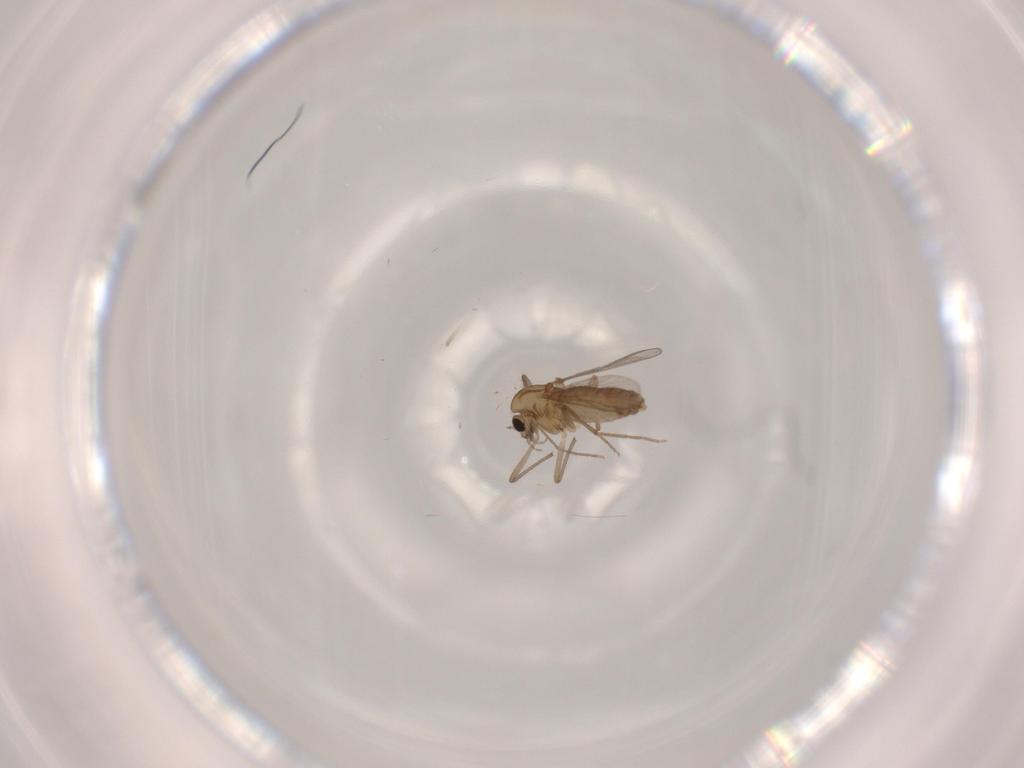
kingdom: Animalia
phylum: Arthropoda
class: Insecta
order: Diptera
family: Chironomidae
